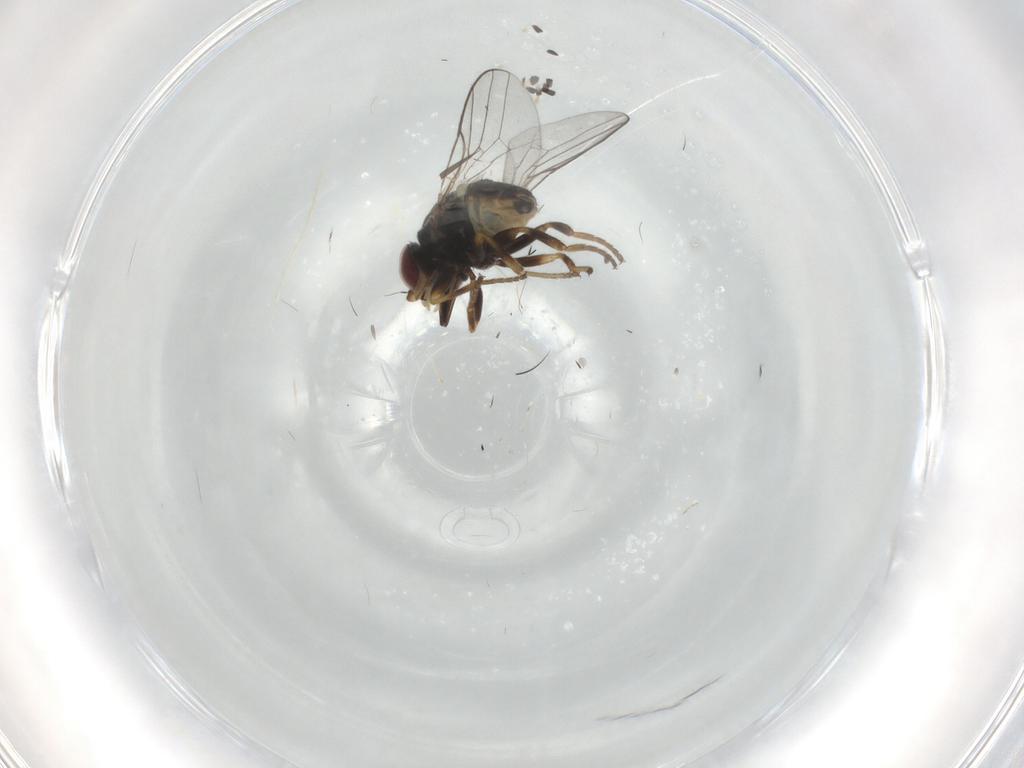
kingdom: Animalia
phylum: Arthropoda
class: Insecta
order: Diptera
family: Chloropidae
